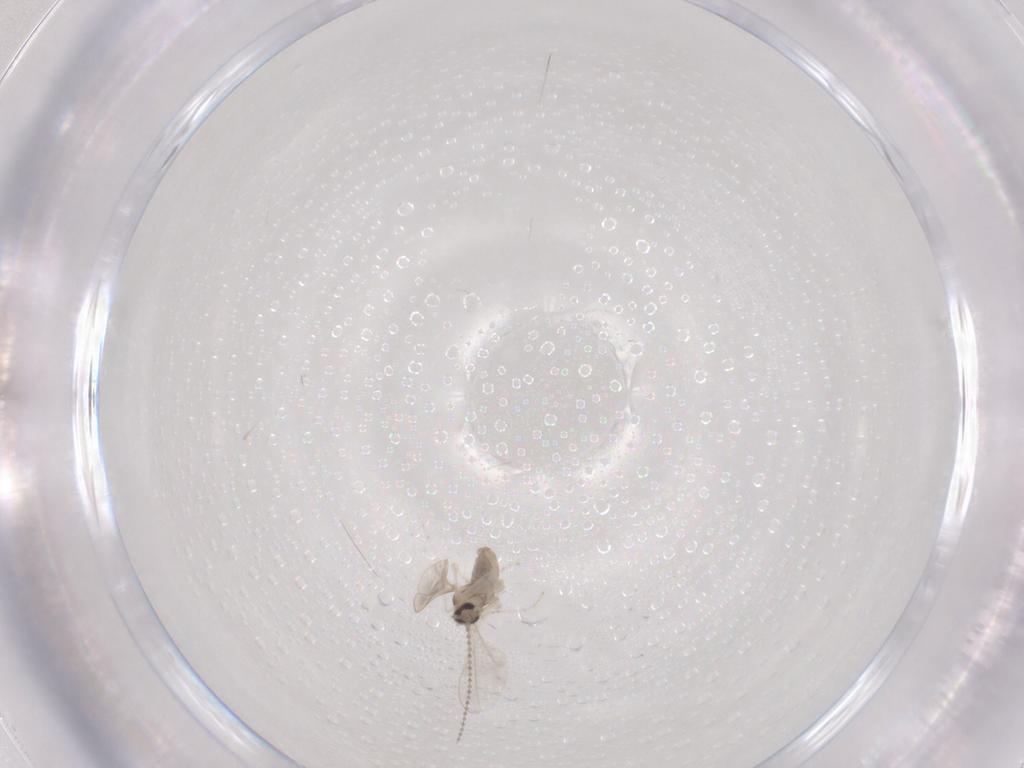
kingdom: Animalia
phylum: Arthropoda
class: Insecta
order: Diptera
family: Cecidomyiidae
